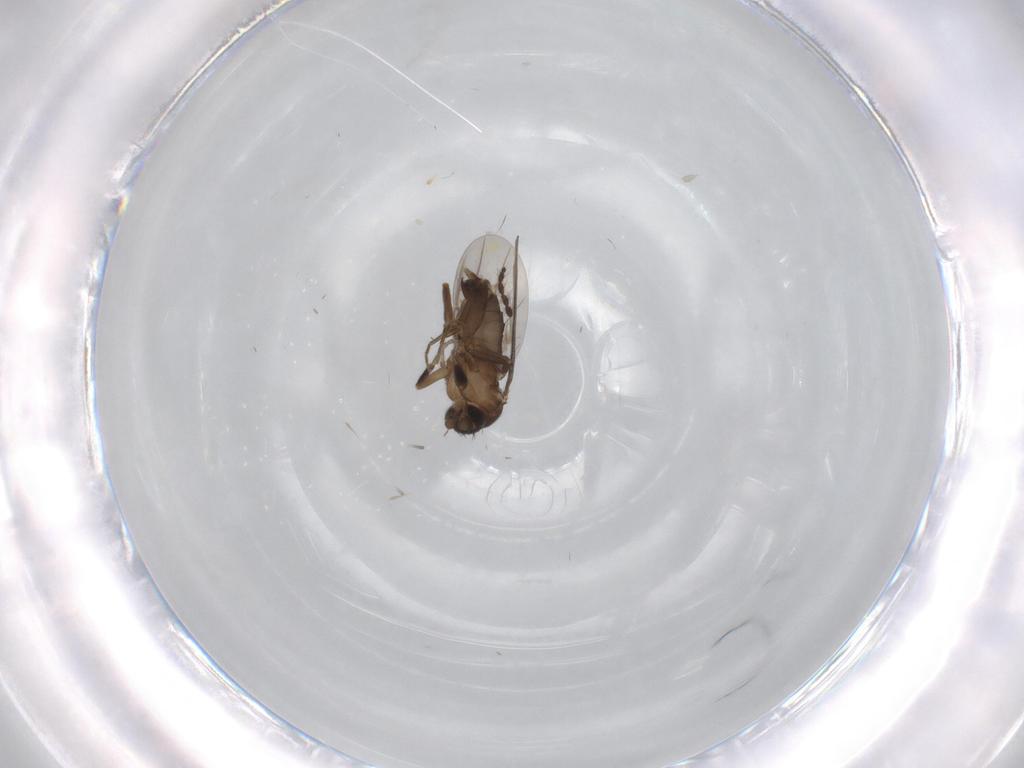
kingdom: Animalia
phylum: Arthropoda
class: Insecta
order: Diptera
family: Phoridae
